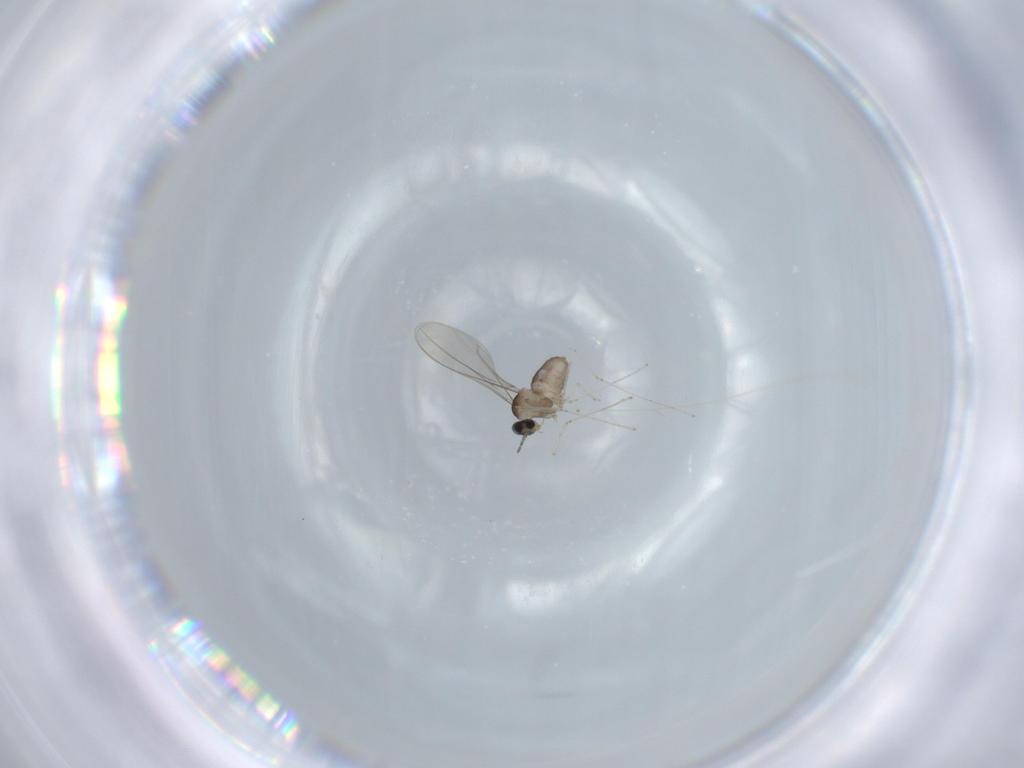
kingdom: Animalia
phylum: Arthropoda
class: Insecta
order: Diptera
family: Cecidomyiidae
